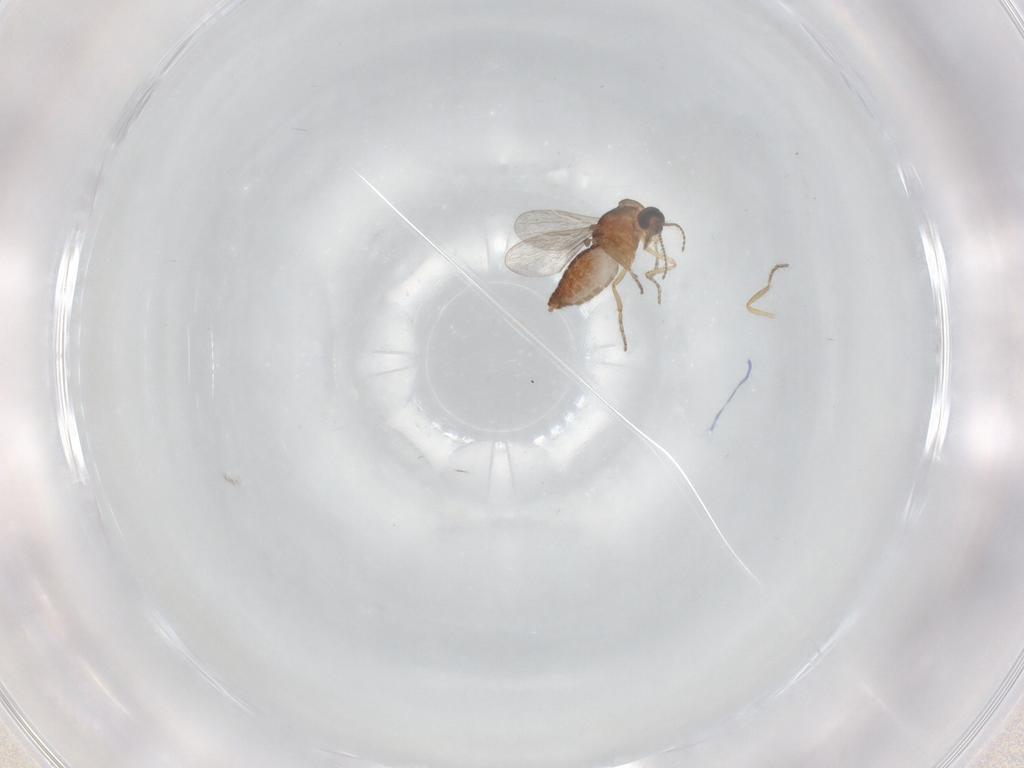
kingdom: Animalia
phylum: Arthropoda
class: Insecta
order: Diptera
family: Ceratopogonidae
